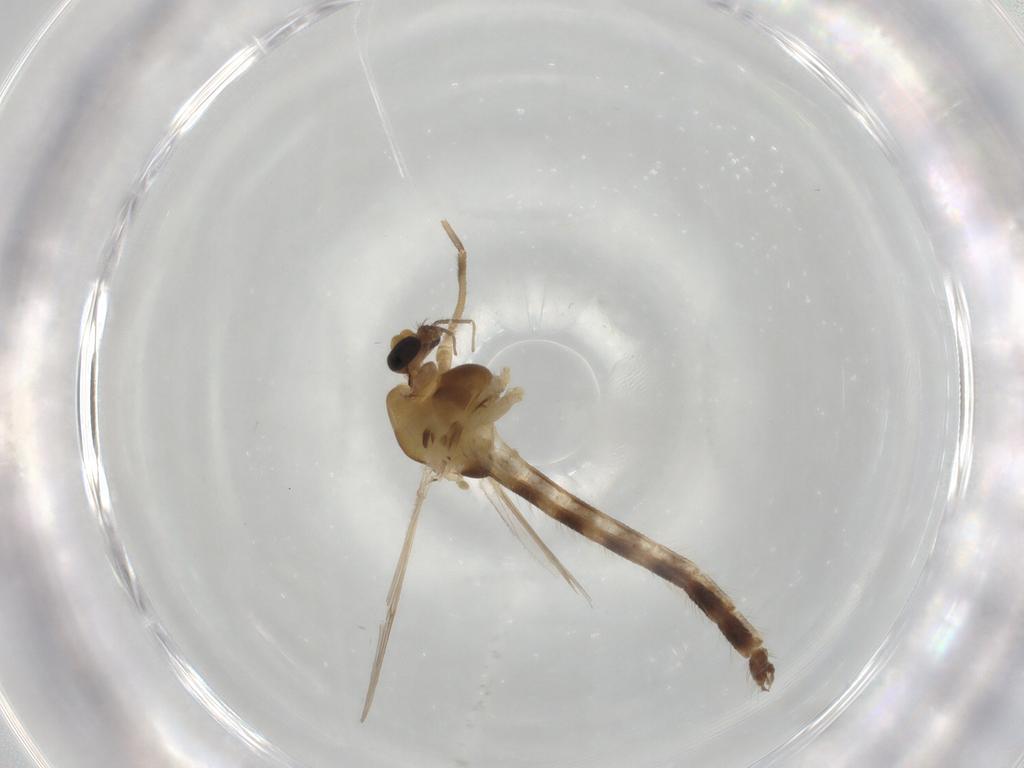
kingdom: Animalia
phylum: Arthropoda
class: Insecta
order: Diptera
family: Chironomidae
